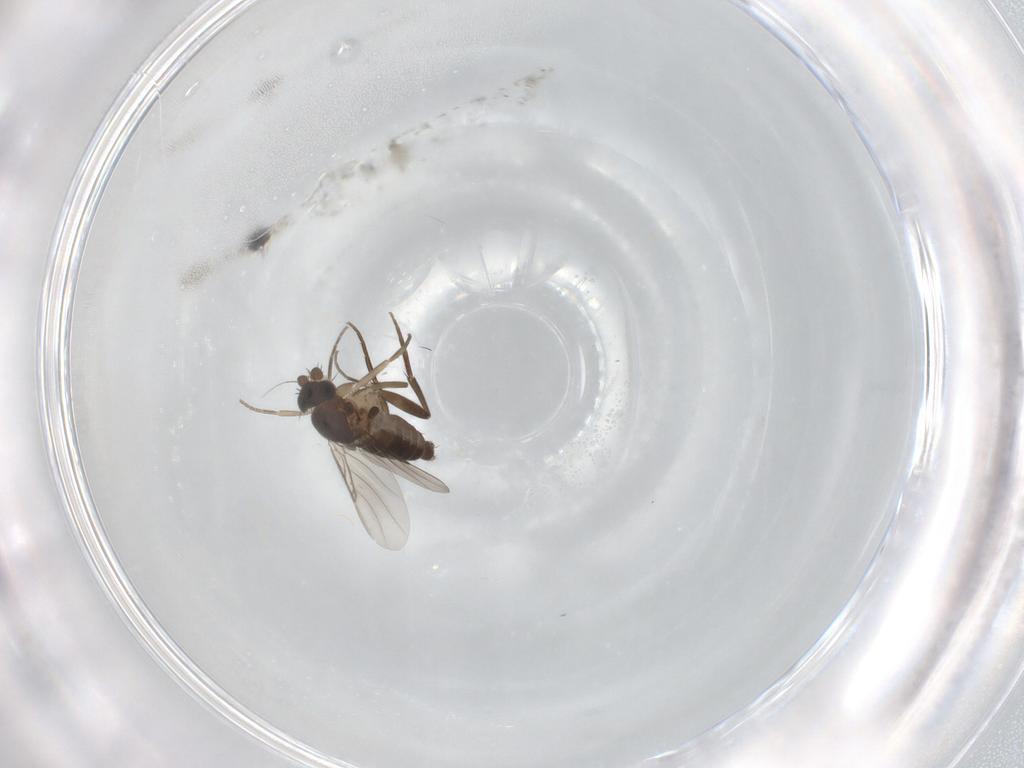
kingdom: Animalia
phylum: Arthropoda
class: Insecta
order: Diptera
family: Phoridae
